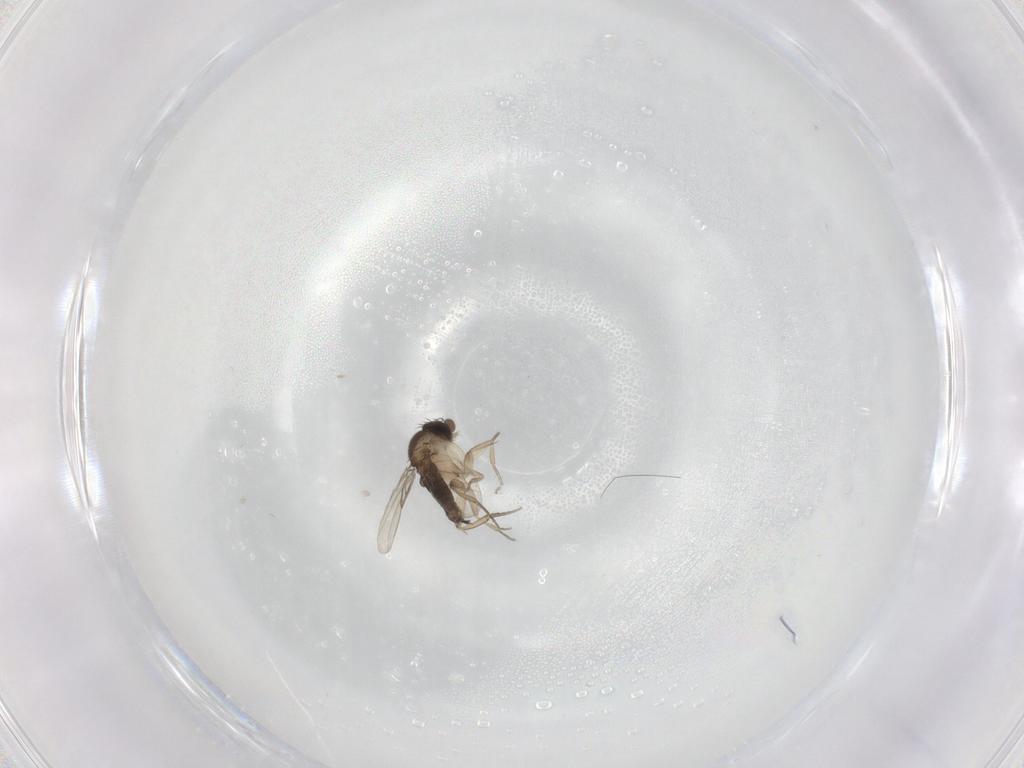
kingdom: Animalia
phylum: Arthropoda
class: Insecta
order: Diptera
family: Phoridae
